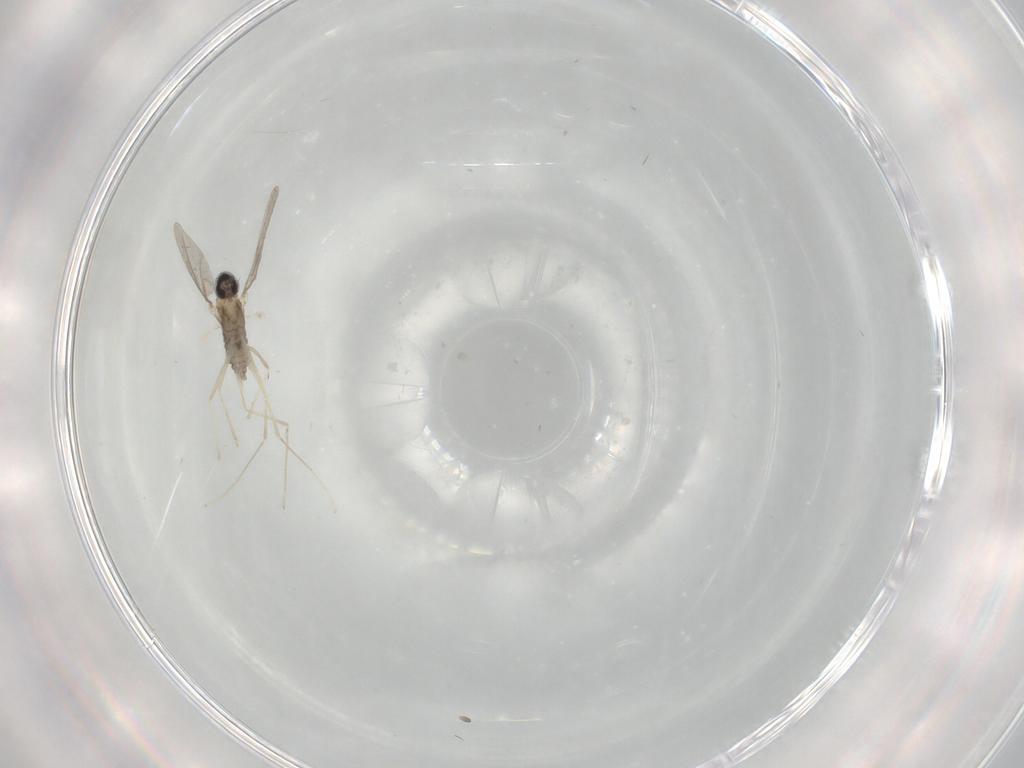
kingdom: Animalia
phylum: Arthropoda
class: Insecta
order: Diptera
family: Cecidomyiidae
